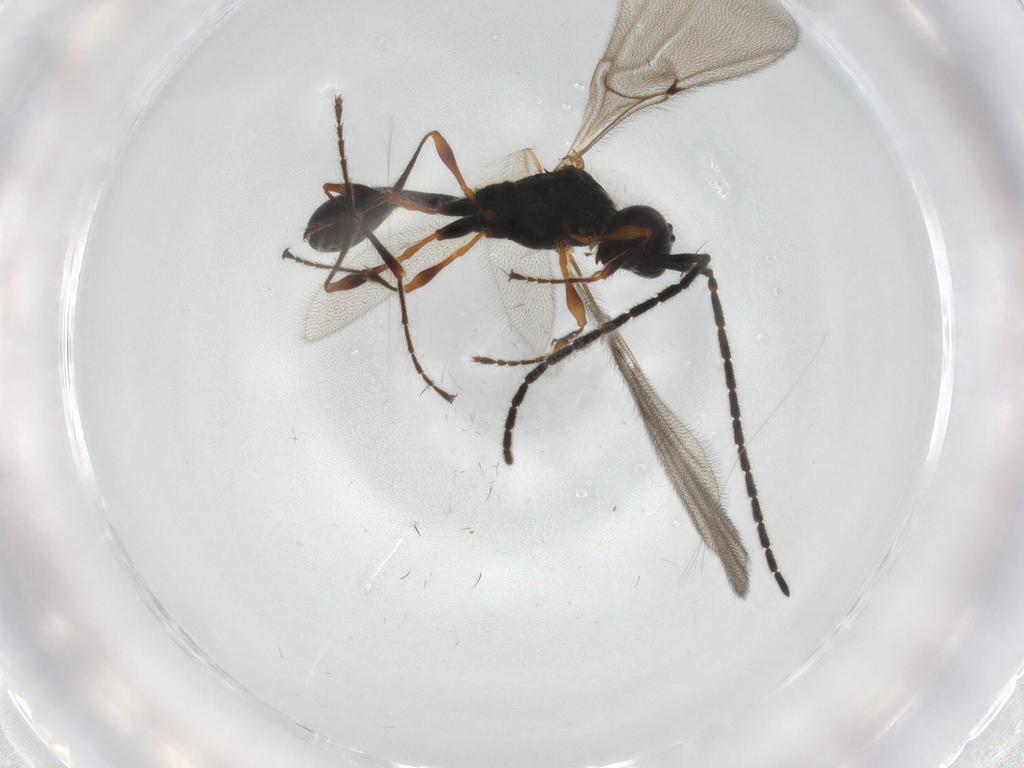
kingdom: Animalia
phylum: Arthropoda
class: Insecta
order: Hymenoptera
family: Diapriidae
